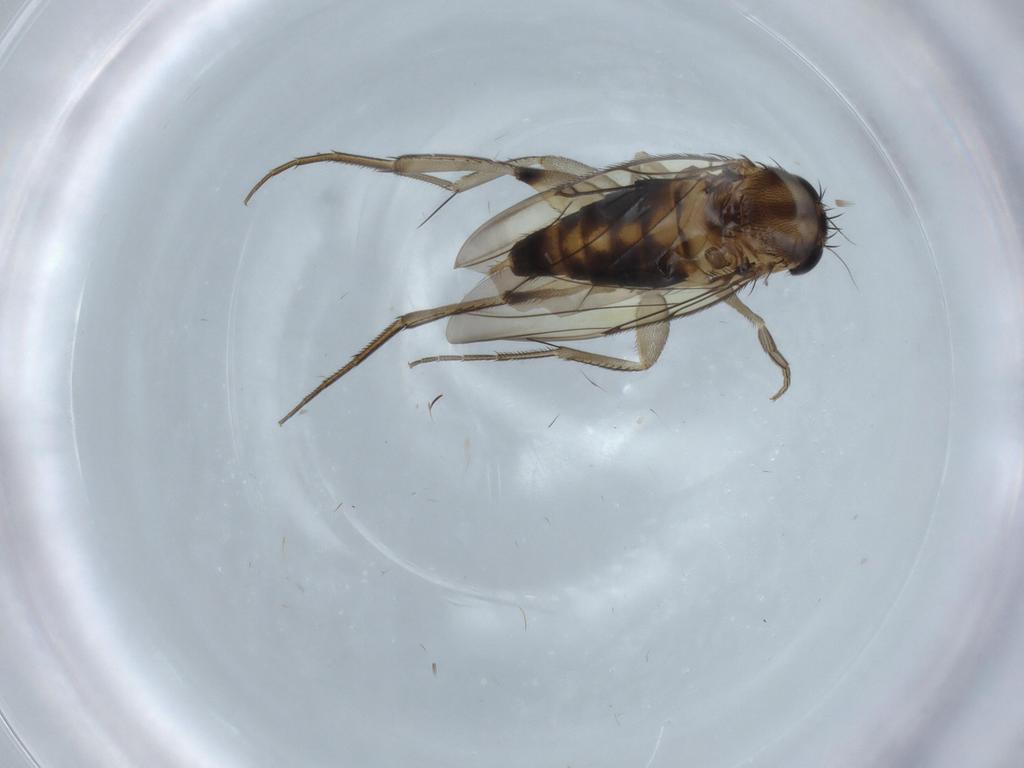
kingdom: Animalia
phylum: Arthropoda
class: Insecta
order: Diptera
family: Phoridae
